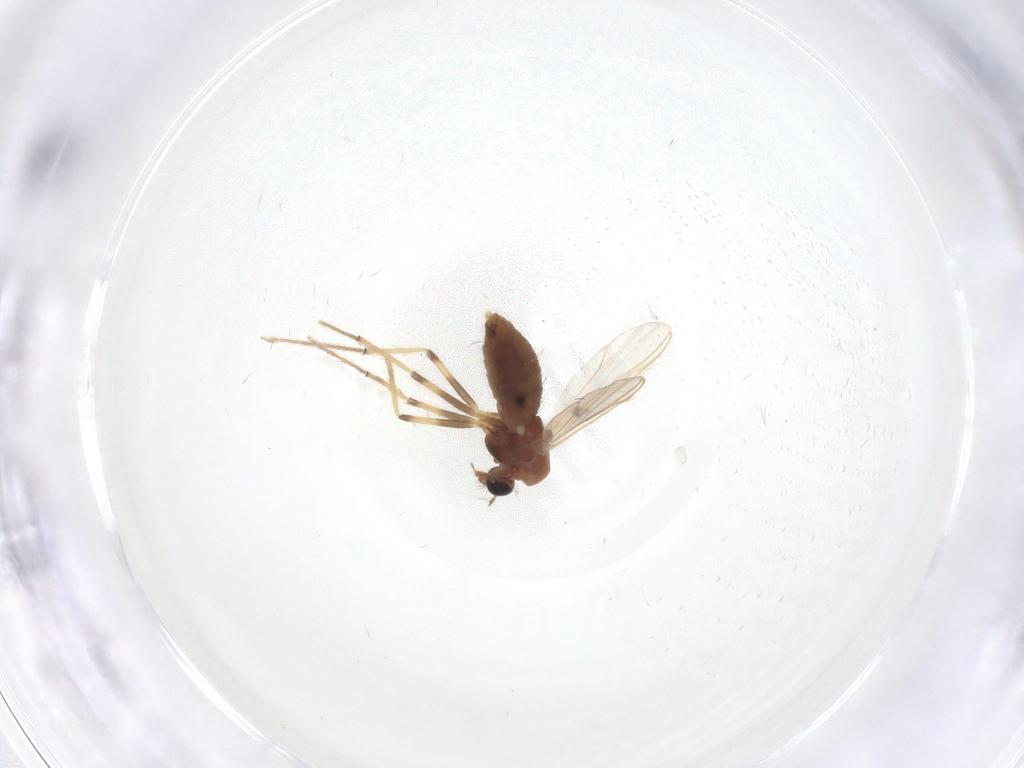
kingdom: Animalia
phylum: Arthropoda
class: Insecta
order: Diptera
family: Chironomidae
